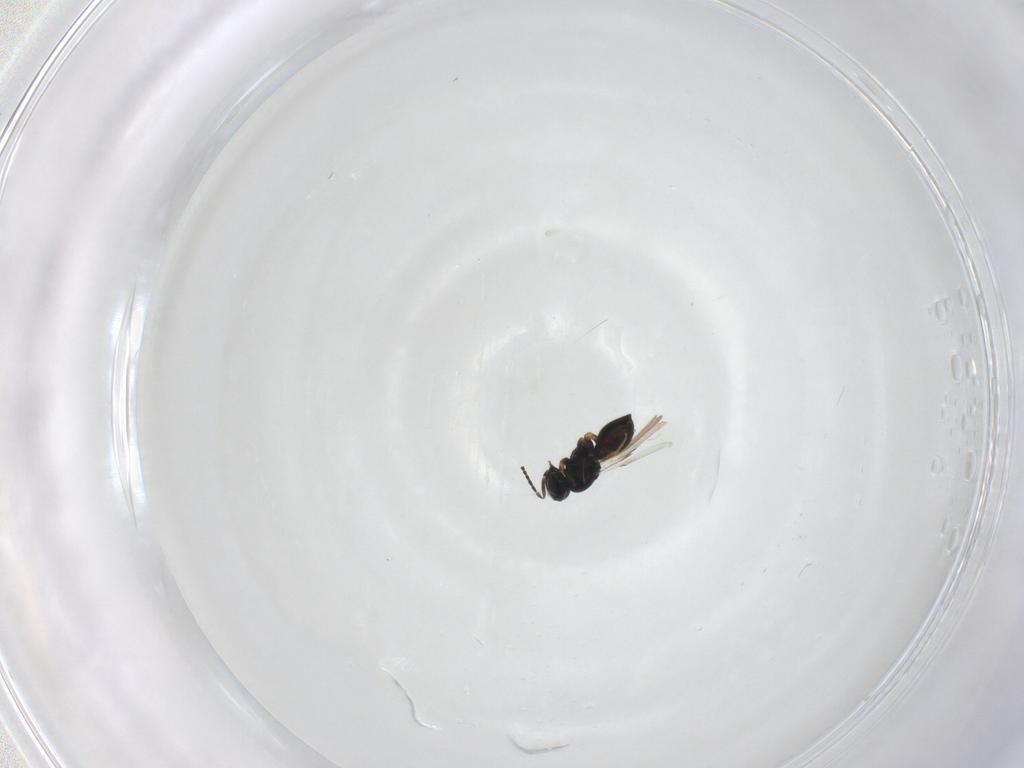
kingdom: Animalia
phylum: Arthropoda
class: Insecta
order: Hymenoptera
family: Scelionidae
